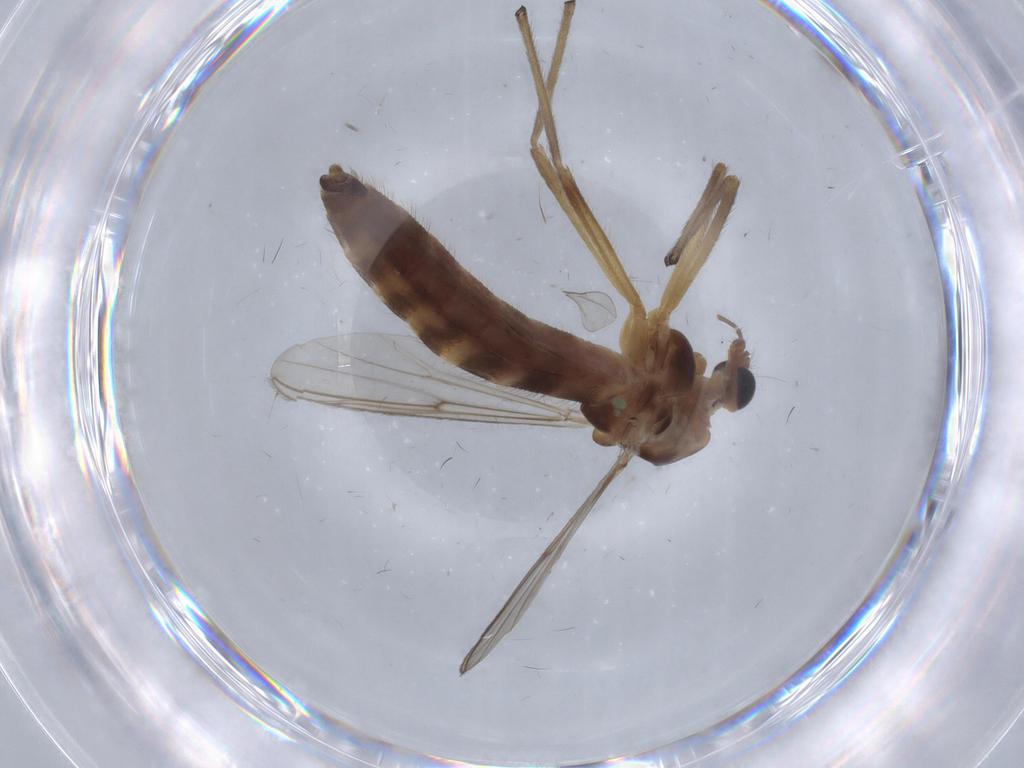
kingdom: Animalia
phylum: Arthropoda
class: Insecta
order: Diptera
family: Chironomidae
